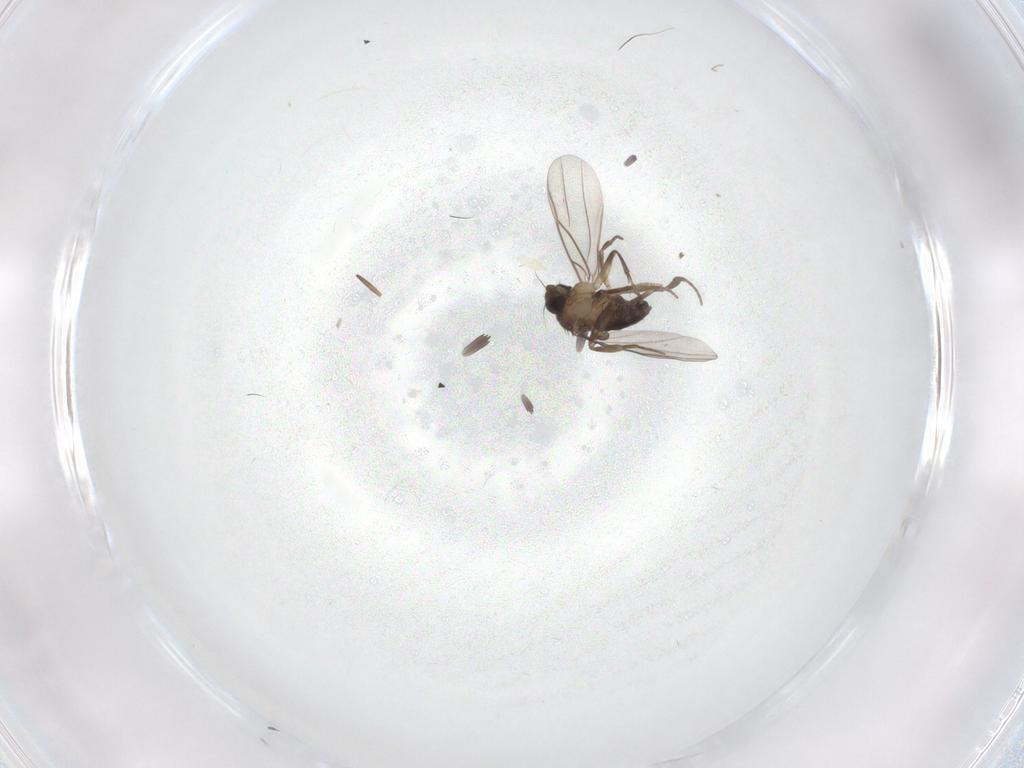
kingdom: Animalia
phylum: Arthropoda
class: Insecta
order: Diptera
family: Phoridae
